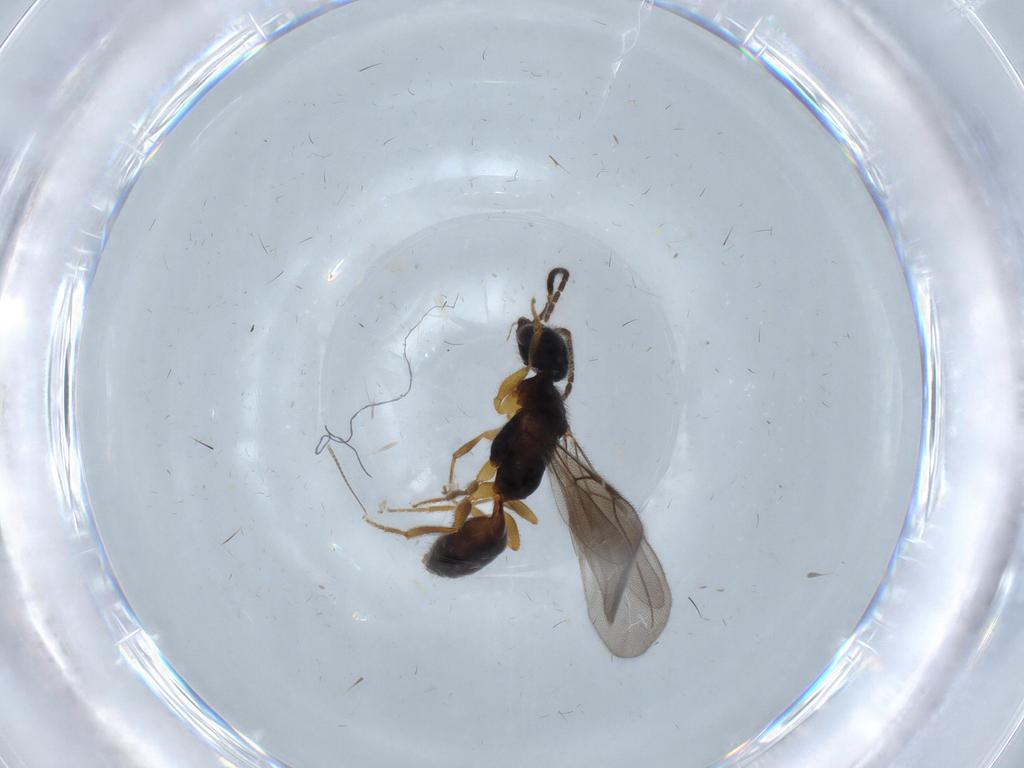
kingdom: Animalia
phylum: Arthropoda
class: Insecta
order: Hymenoptera
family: Bethylidae
